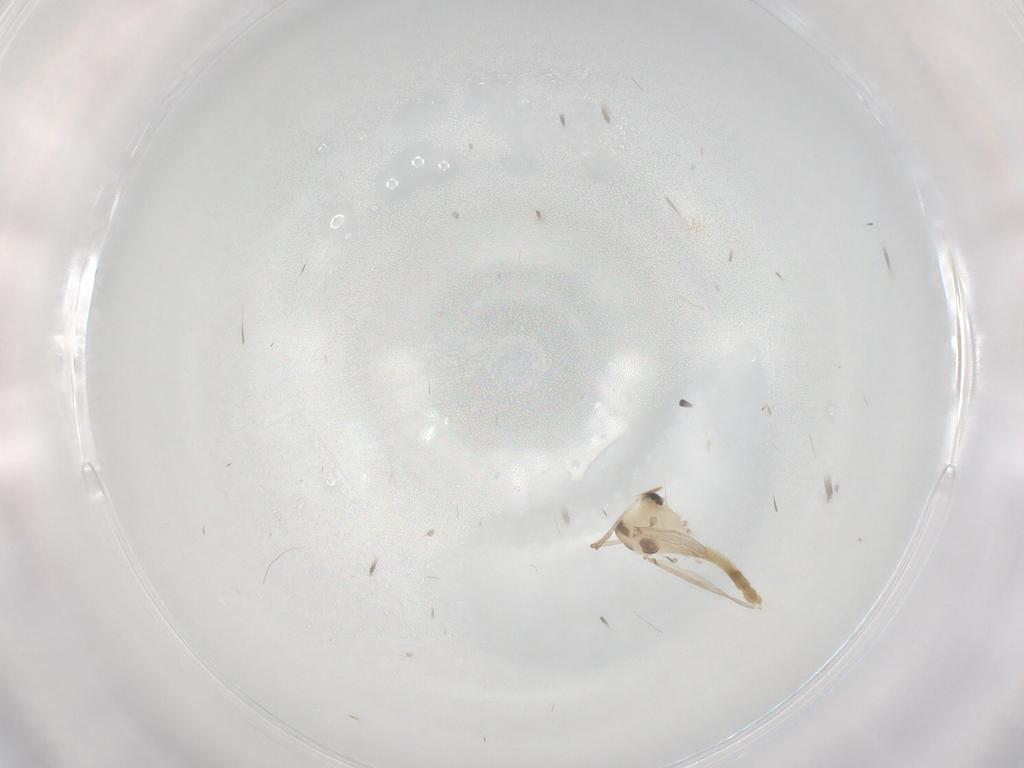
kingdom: Animalia
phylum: Arthropoda
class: Insecta
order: Diptera
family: Chironomidae
